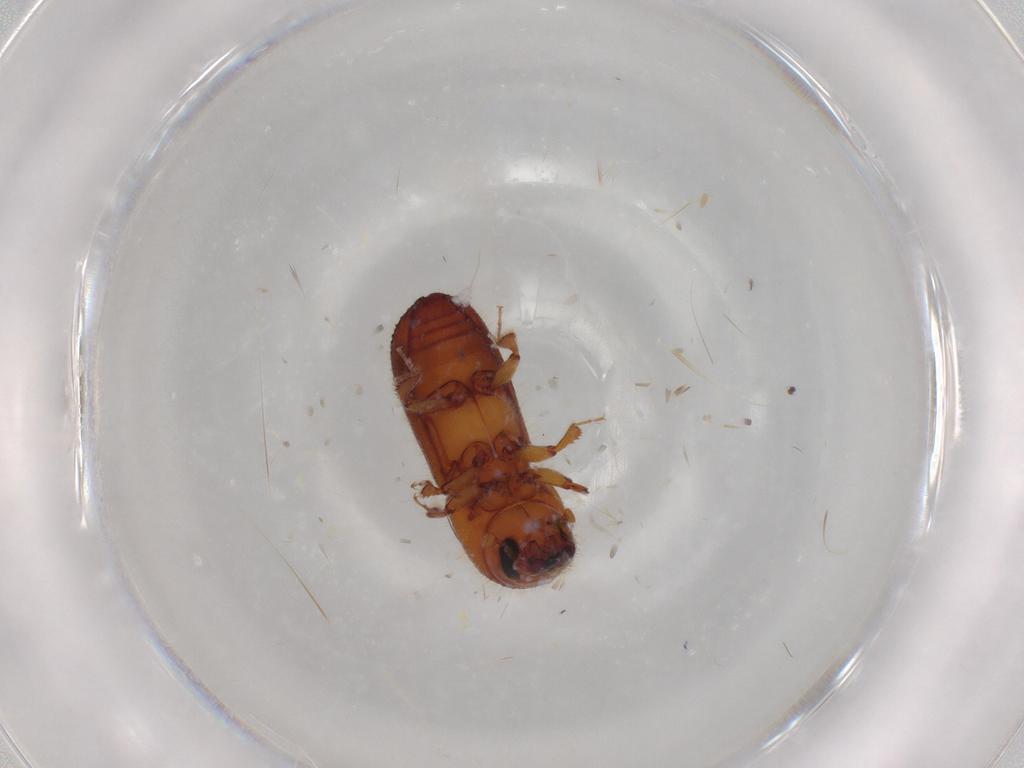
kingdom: Animalia
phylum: Arthropoda
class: Insecta
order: Coleoptera
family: Curculionidae
